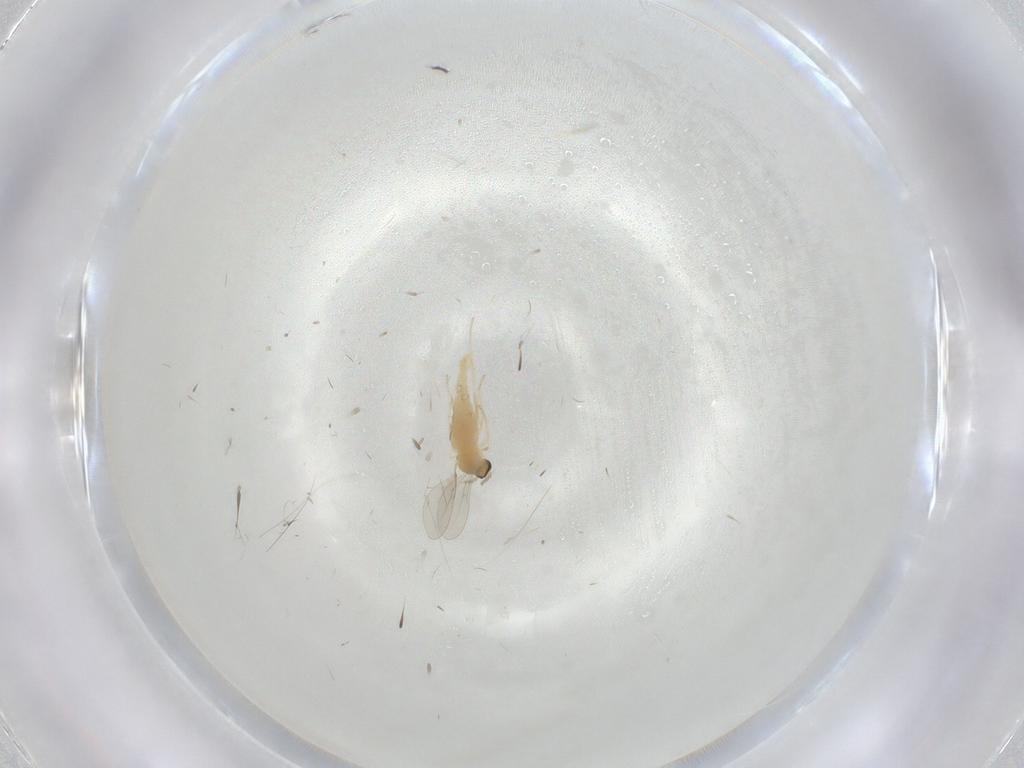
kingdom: Animalia
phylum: Arthropoda
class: Insecta
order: Diptera
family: Cecidomyiidae
